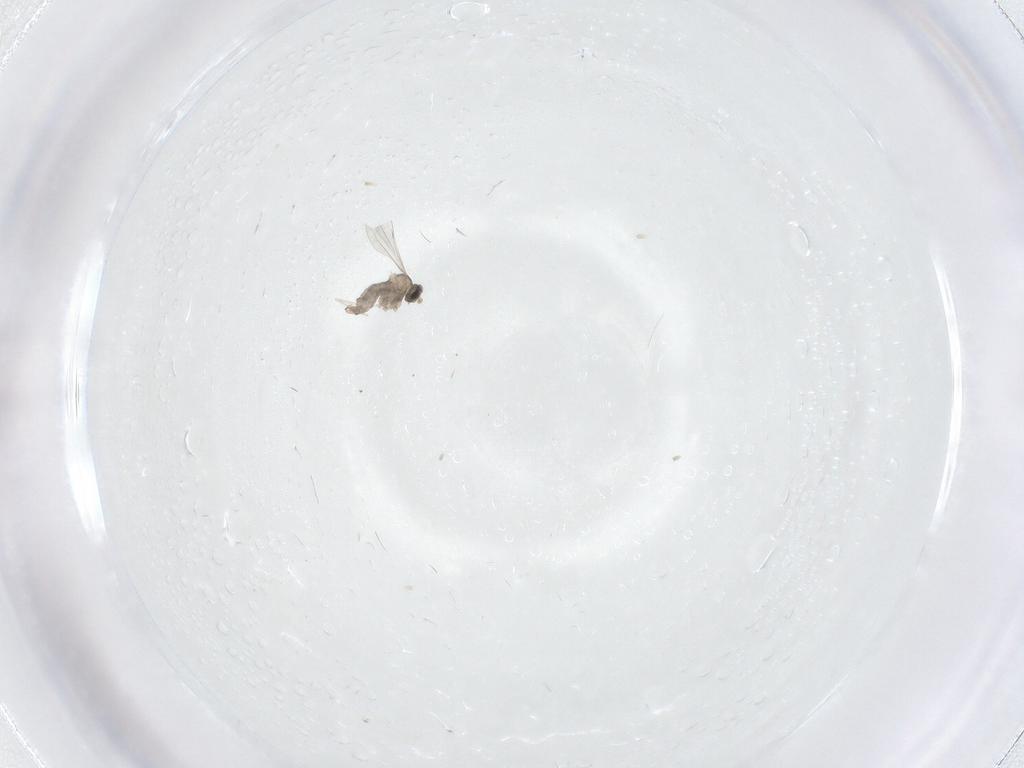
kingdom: Animalia
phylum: Arthropoda
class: Insecta
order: Diptera
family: Cecidomyiidae
